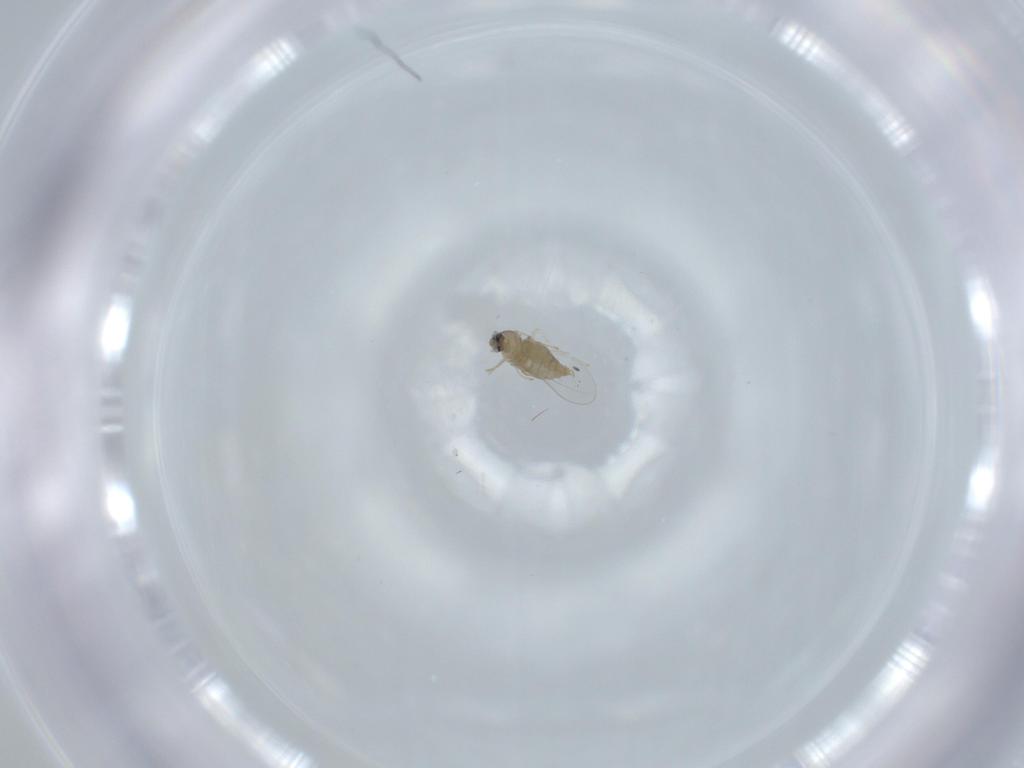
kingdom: Animalia
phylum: Arthropoda
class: Insecta
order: Diptera
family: Cecidomyiidae
